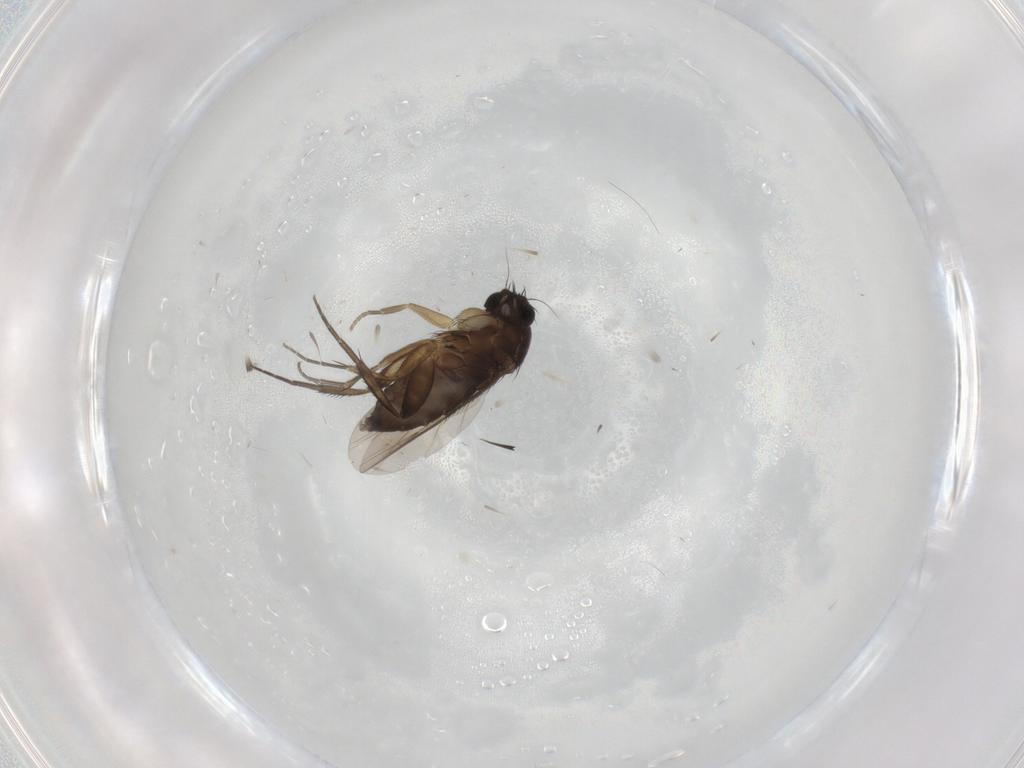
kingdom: Animalia
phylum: Arthropoda
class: Insecta
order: Diptera
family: Phoridae
